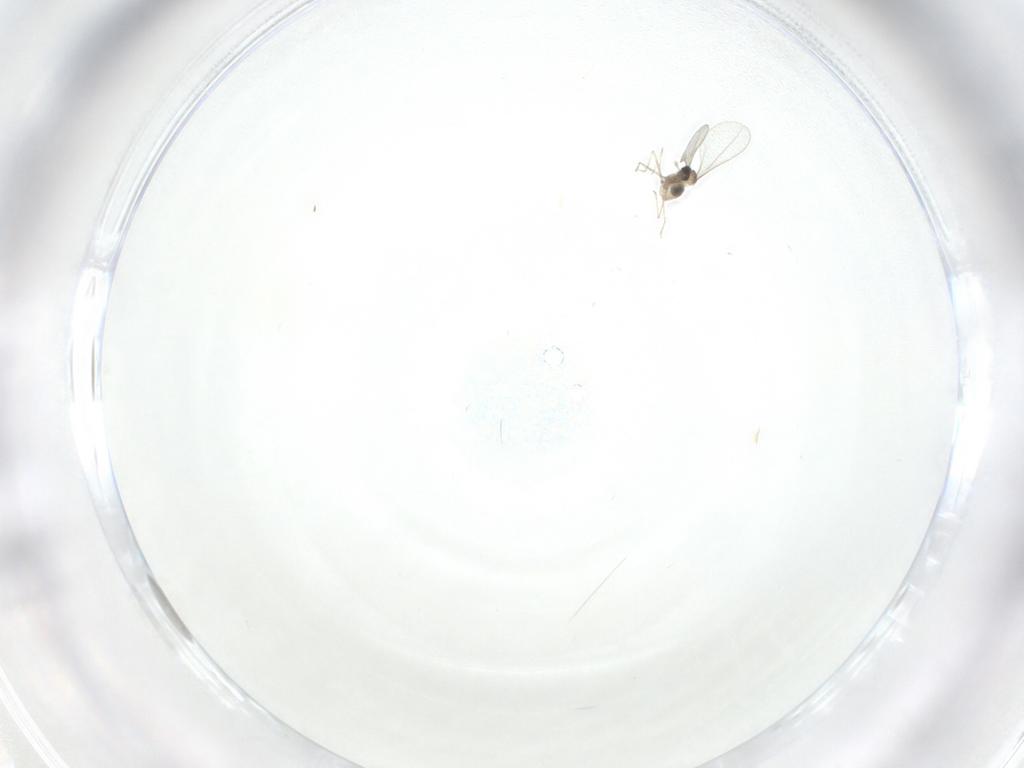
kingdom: Animalia
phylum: Arthropoda
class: Insecta
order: Diptera
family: Cecidomyiidae
